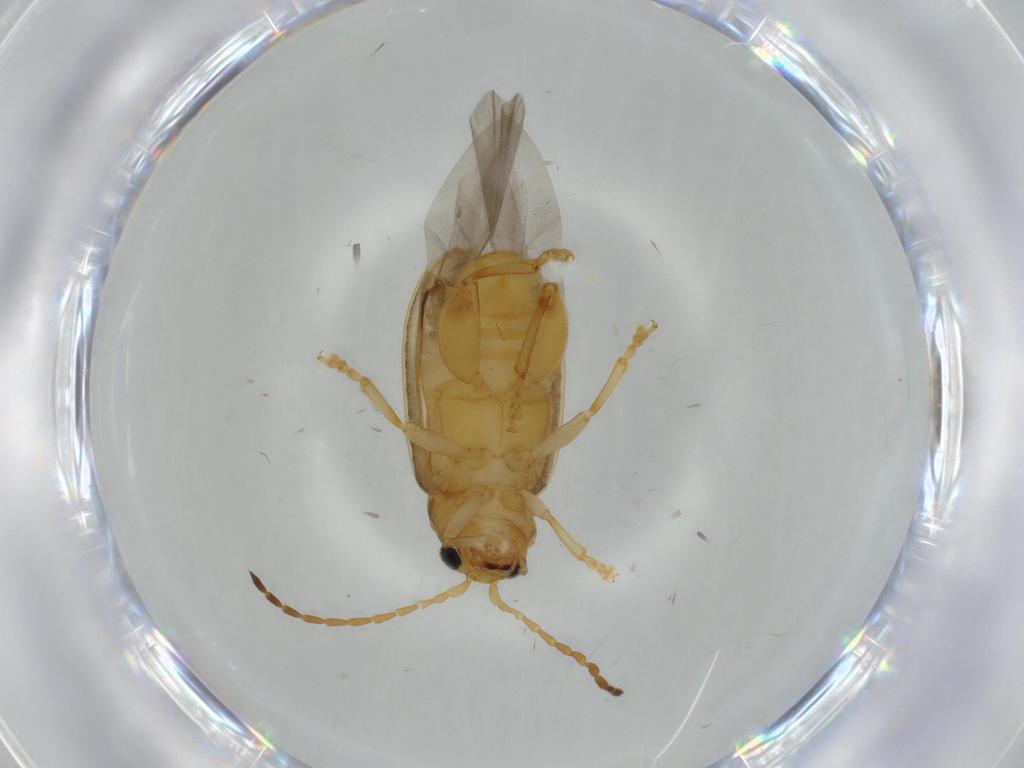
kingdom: Animalia
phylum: Arthropoda
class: Insecta
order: Coleoptera
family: Chrysomelidae
